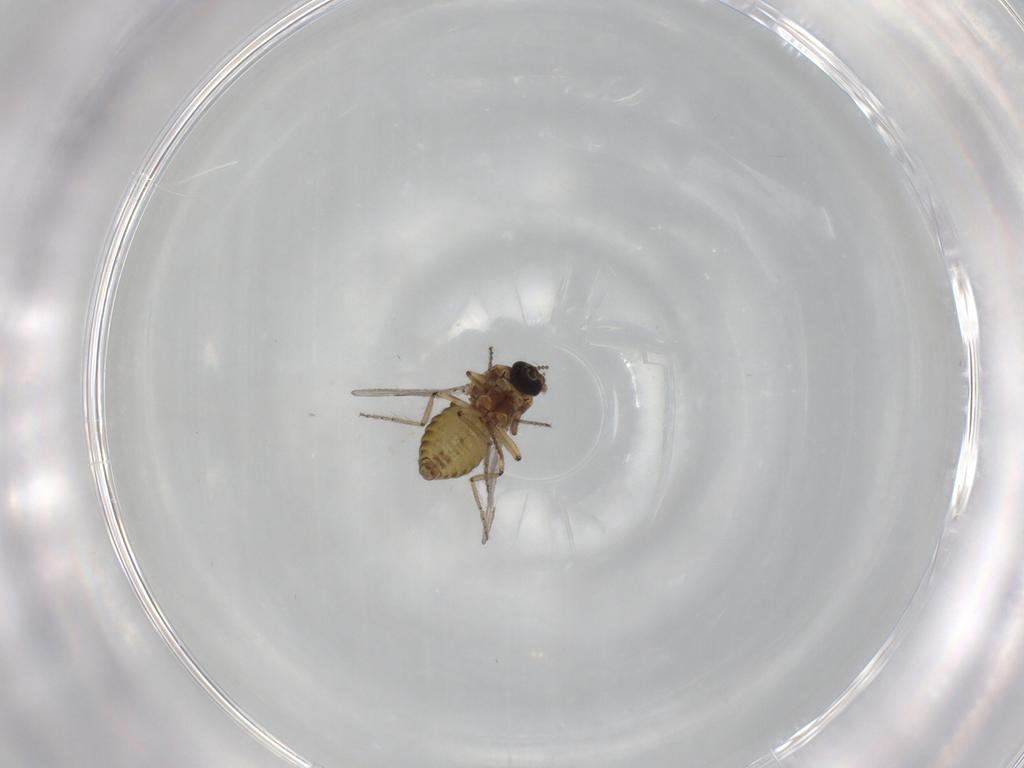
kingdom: Animalia
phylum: Arthropoda
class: Insecta
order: Diptera
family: Ceratopogonidae
